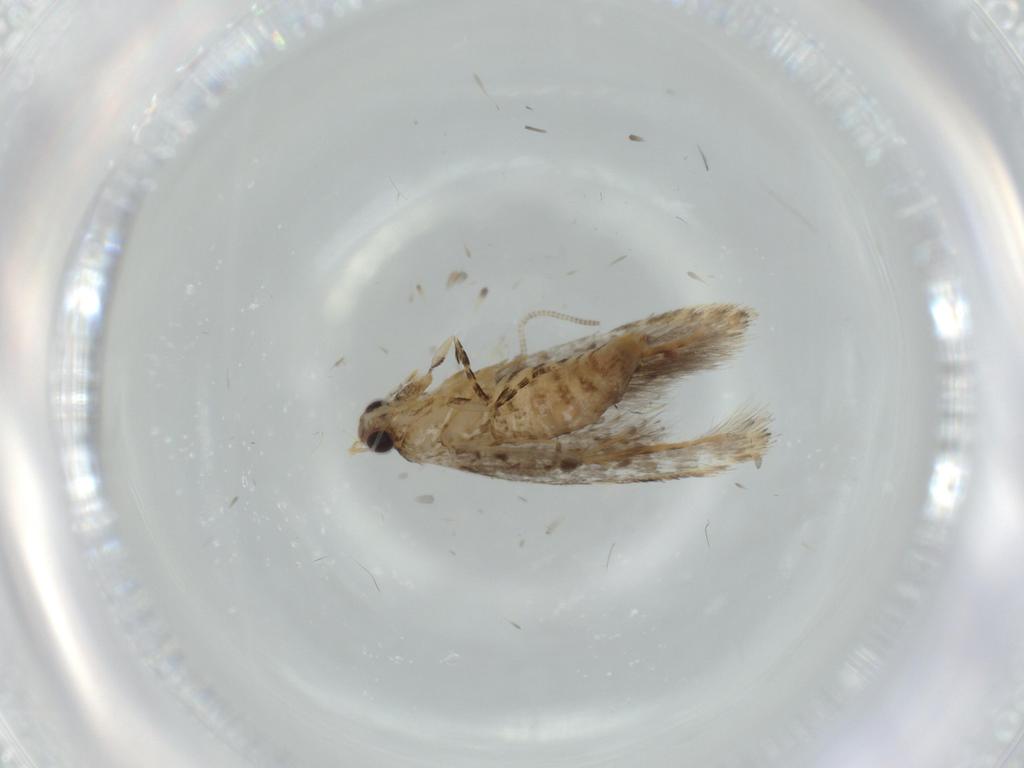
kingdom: Animalia
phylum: Arthropoda
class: Insecta
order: Lepidoptera
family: Tineidae
